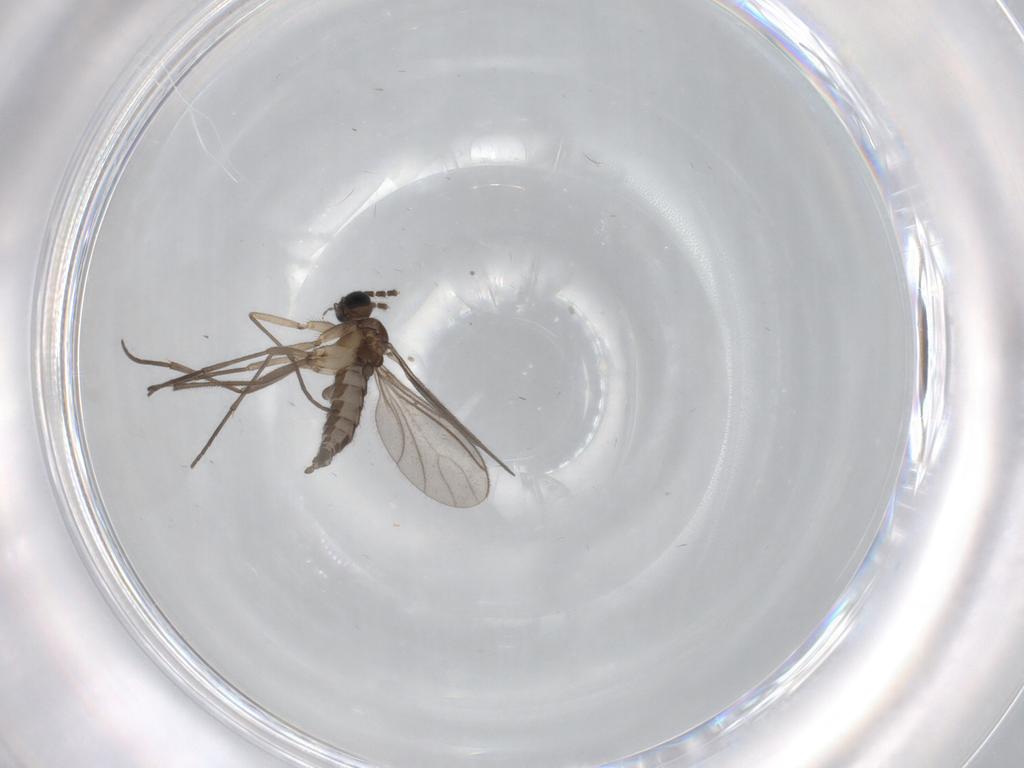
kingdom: Animalia
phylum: Arthropoda
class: Insecta
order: Diptera
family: Sciaridae
